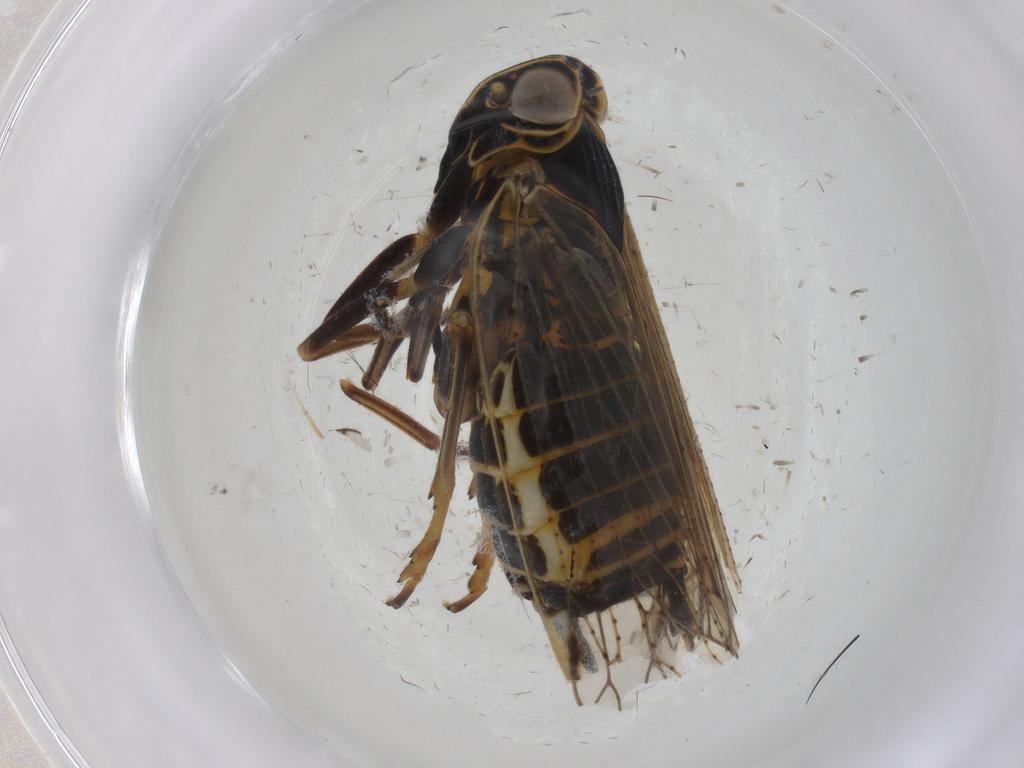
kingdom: Animalia
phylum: Arthropoda
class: Insecta
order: Hemiptera
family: Cixiidae
